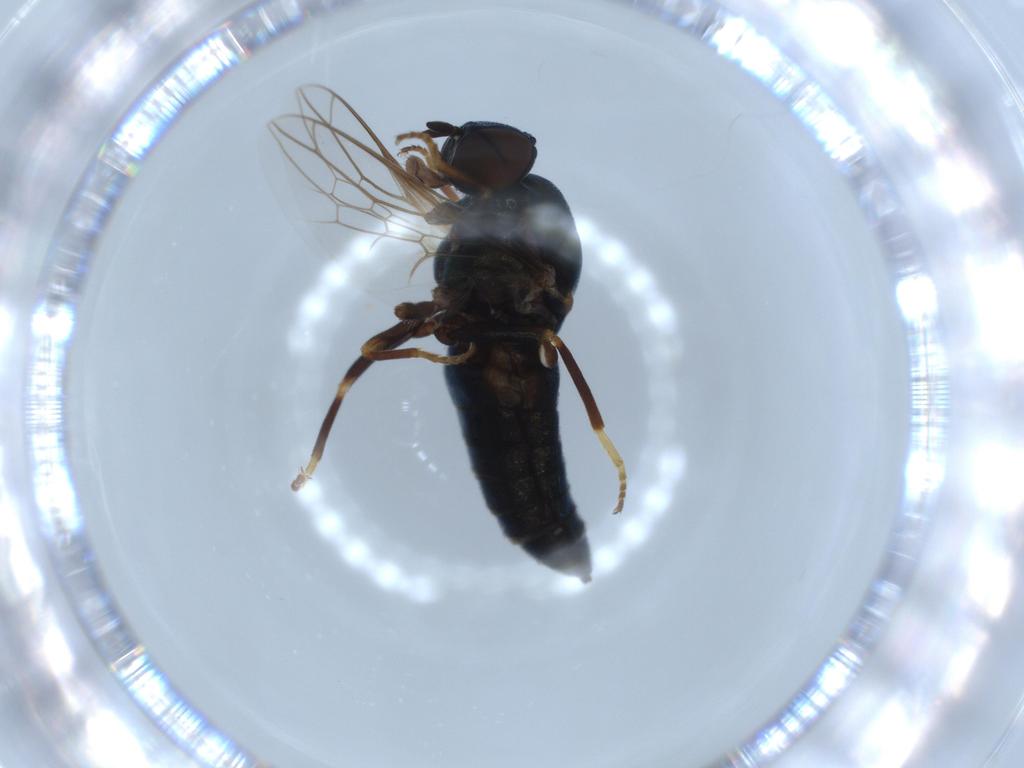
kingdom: Animalia
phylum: Arthropoda
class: Insecta
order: Diptera
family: Scenopinidae
